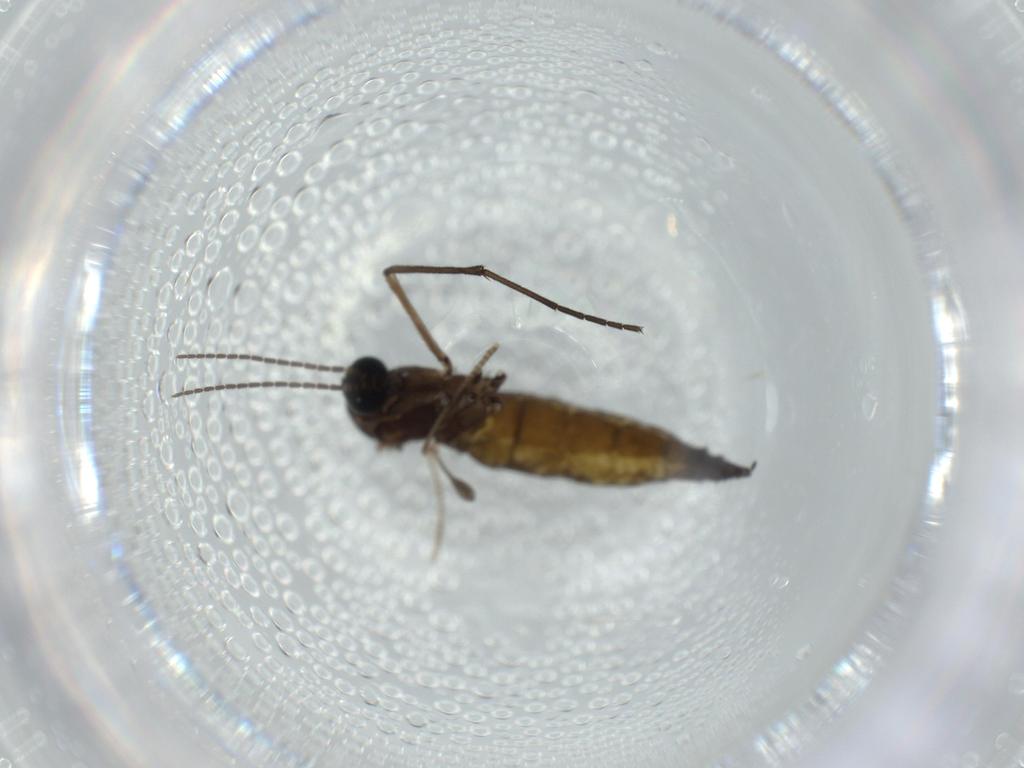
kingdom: Animalia
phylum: Arthropoda
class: Insecta
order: Diptera
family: Sciaridae
